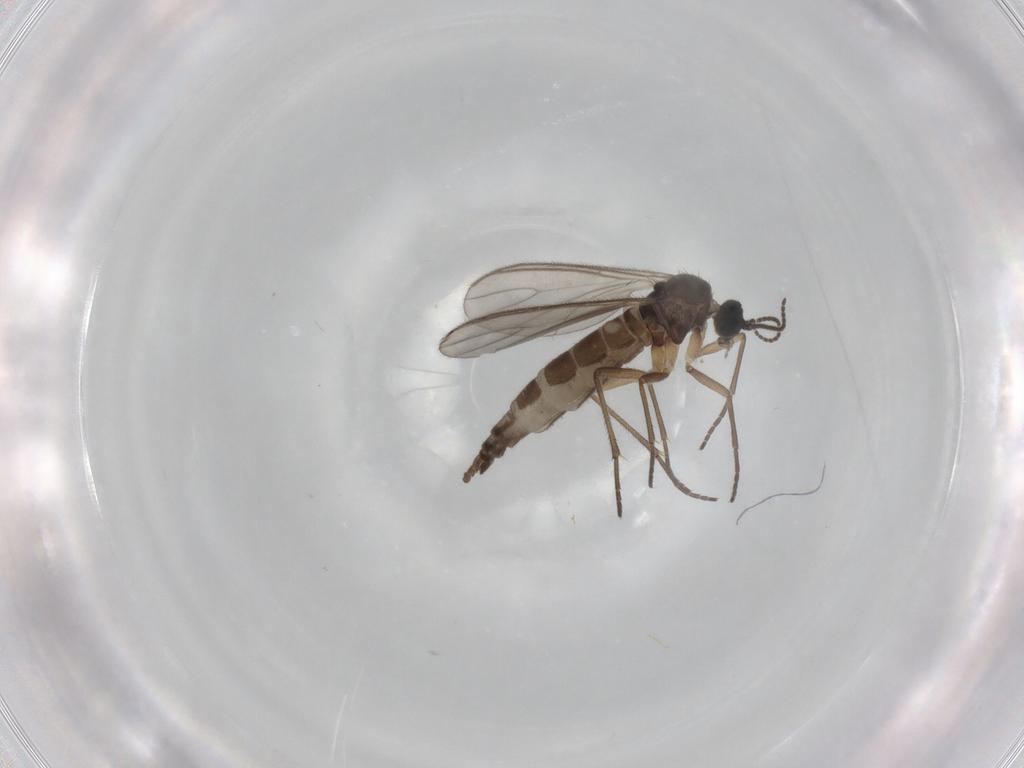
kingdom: Animalia
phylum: Arthropoda
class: Insecta
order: Diptera
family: Sciaridae
